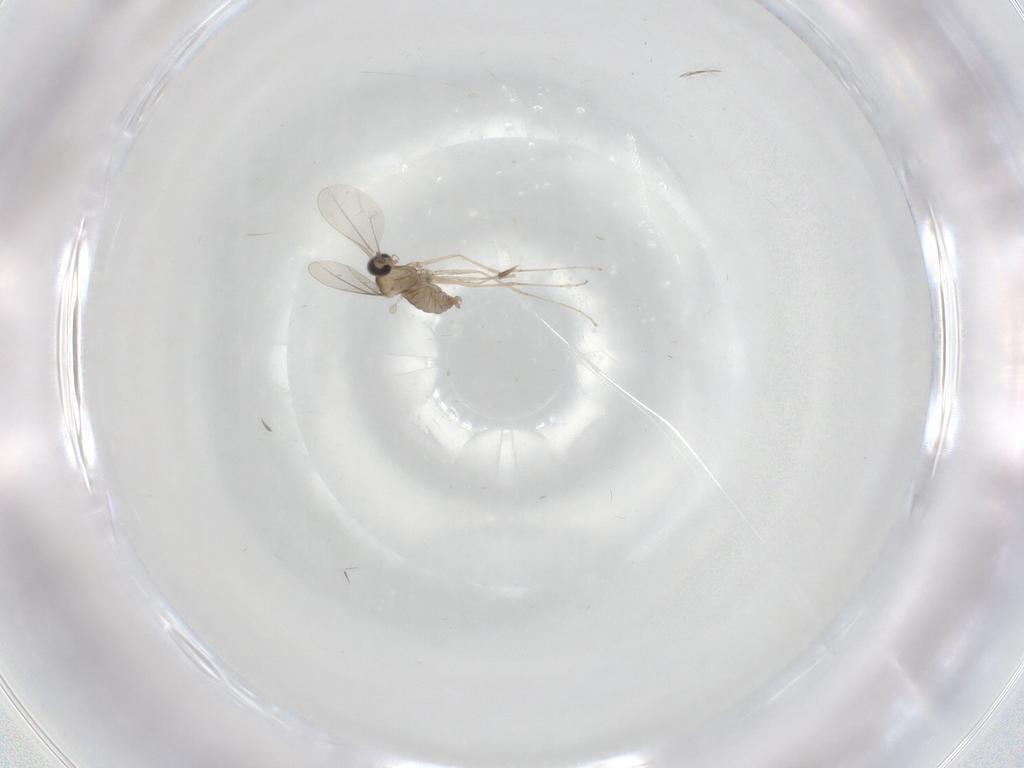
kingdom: Animalia
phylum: Arthropoda
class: Insecta
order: Diptera
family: Cecidomyiidae
